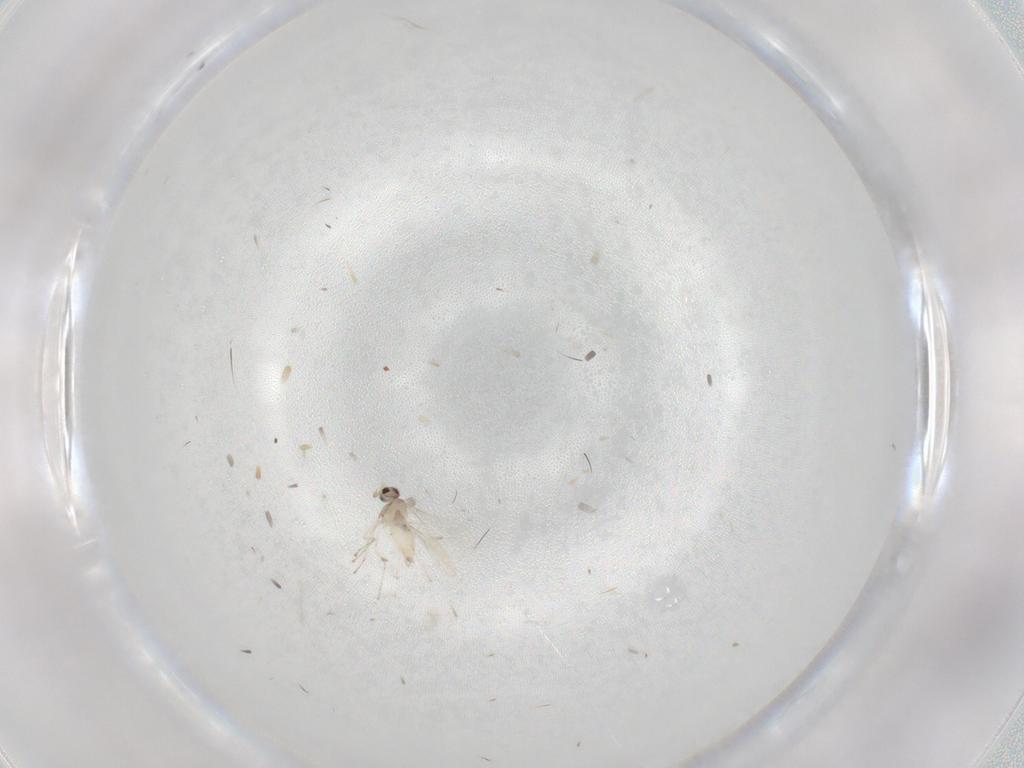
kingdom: Animalia
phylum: Arthropoda
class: Insecta
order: Diptera
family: Cecidomyiidae
